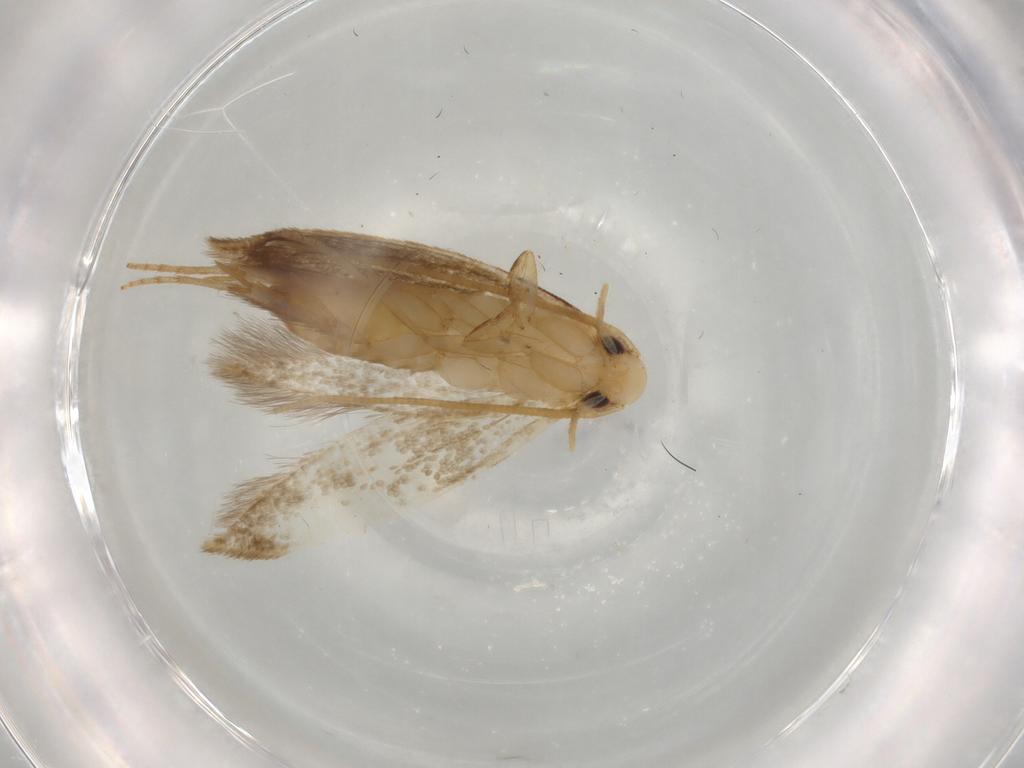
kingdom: Animalia
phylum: Arthropoda
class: Insecta
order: Lepidoptera
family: Tineidae
